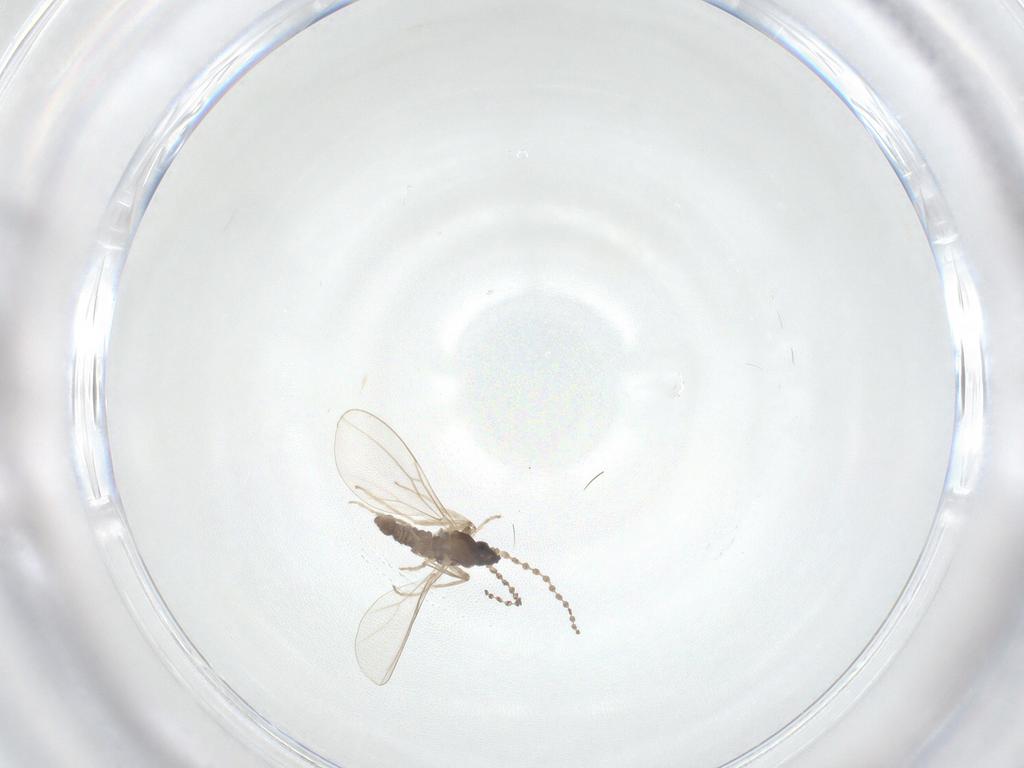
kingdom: Animalia
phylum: Arthropoda
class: Insecta
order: Diptera
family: Cecidomyiidae
